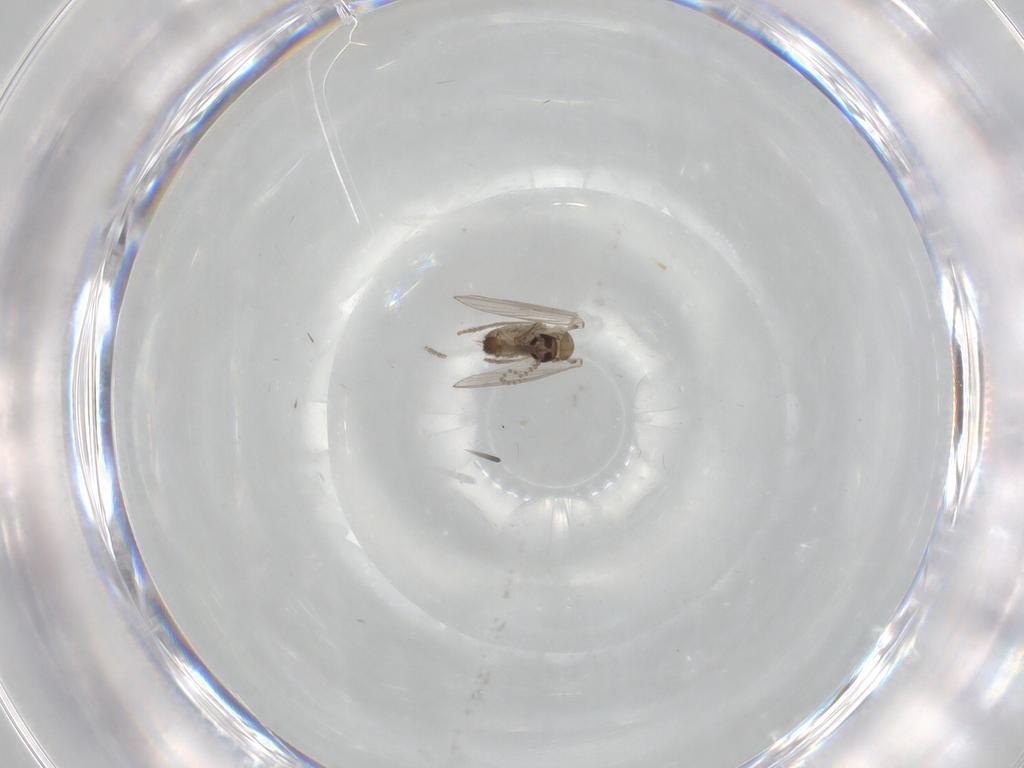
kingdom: Animalia
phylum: Arthropoda
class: Insecta
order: Diptera
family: Psychodidae
